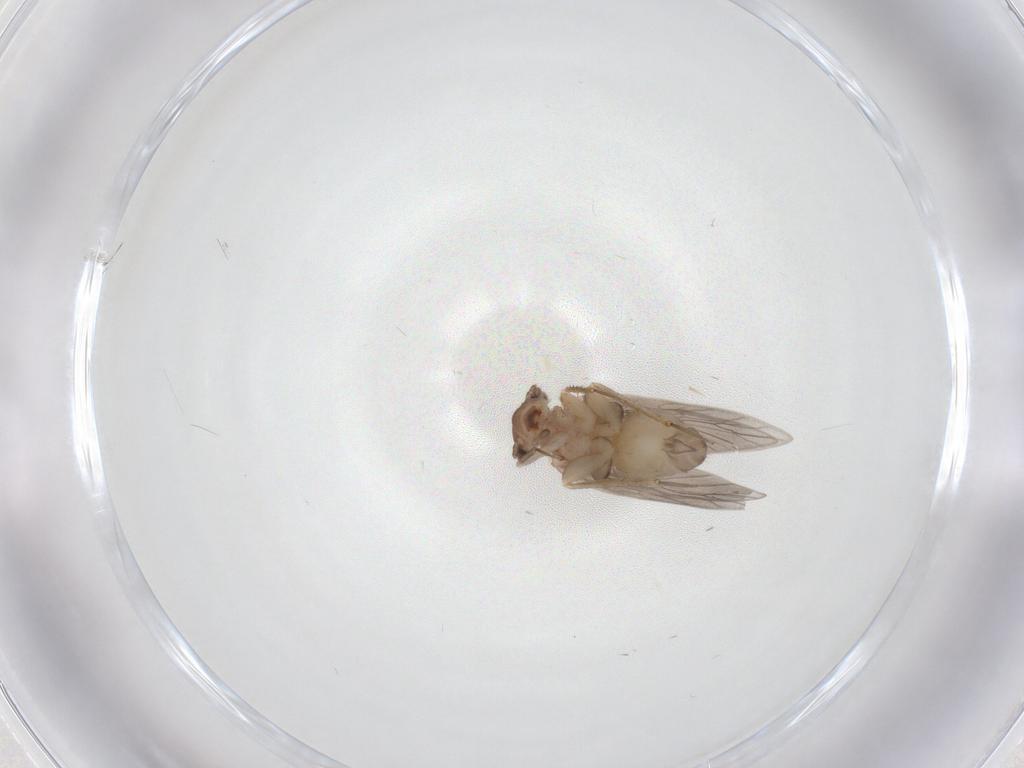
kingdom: Animalia
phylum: Arthropoda
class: Insecta
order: Psocodea
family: Lepidopsocidae
